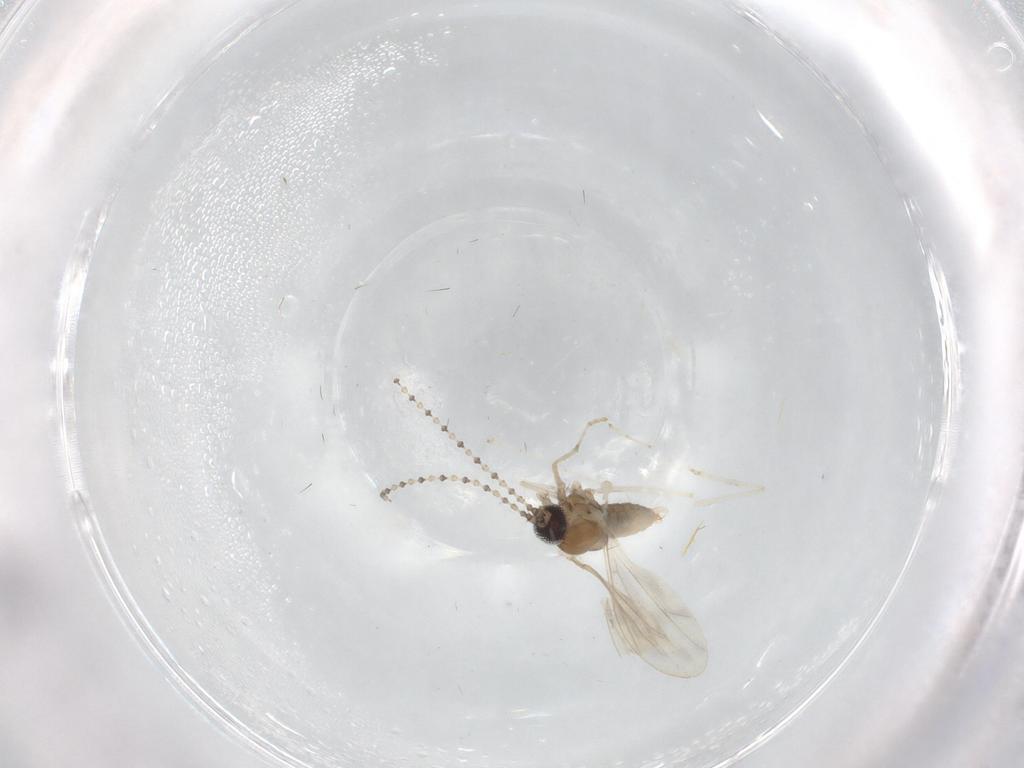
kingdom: Animalia
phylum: Arthropoda
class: Insecta
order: Diptera
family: Cecidomyiidae
